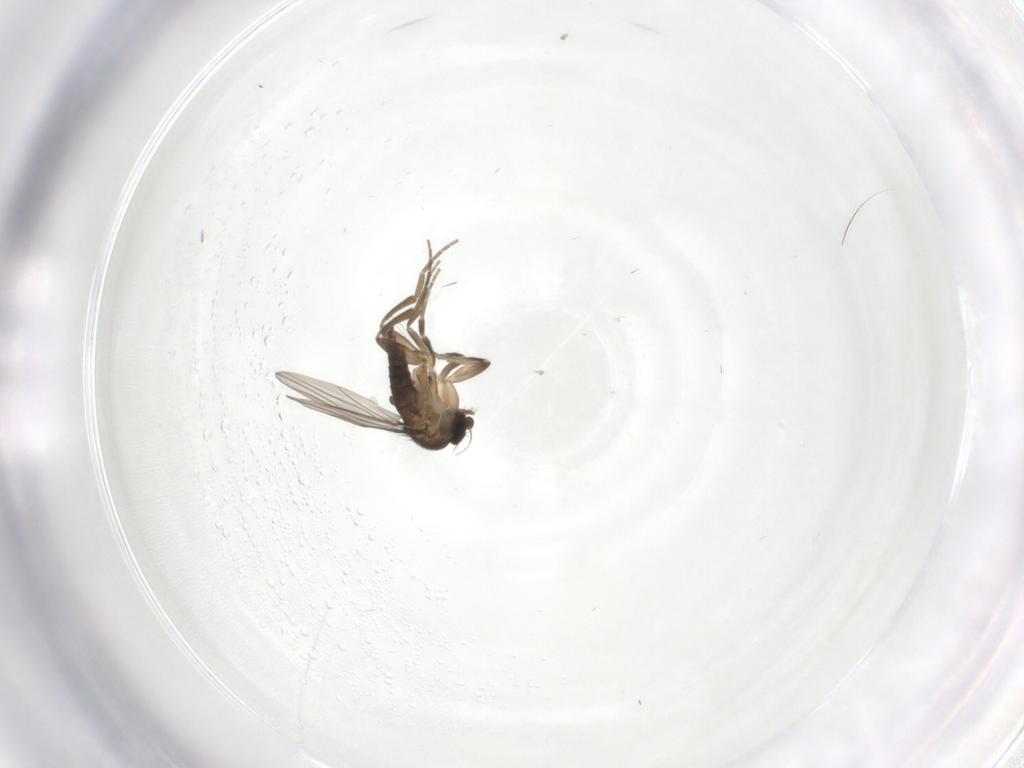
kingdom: Animalia
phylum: Arthropoda
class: Insecta
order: Diptera
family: Chironomidae
